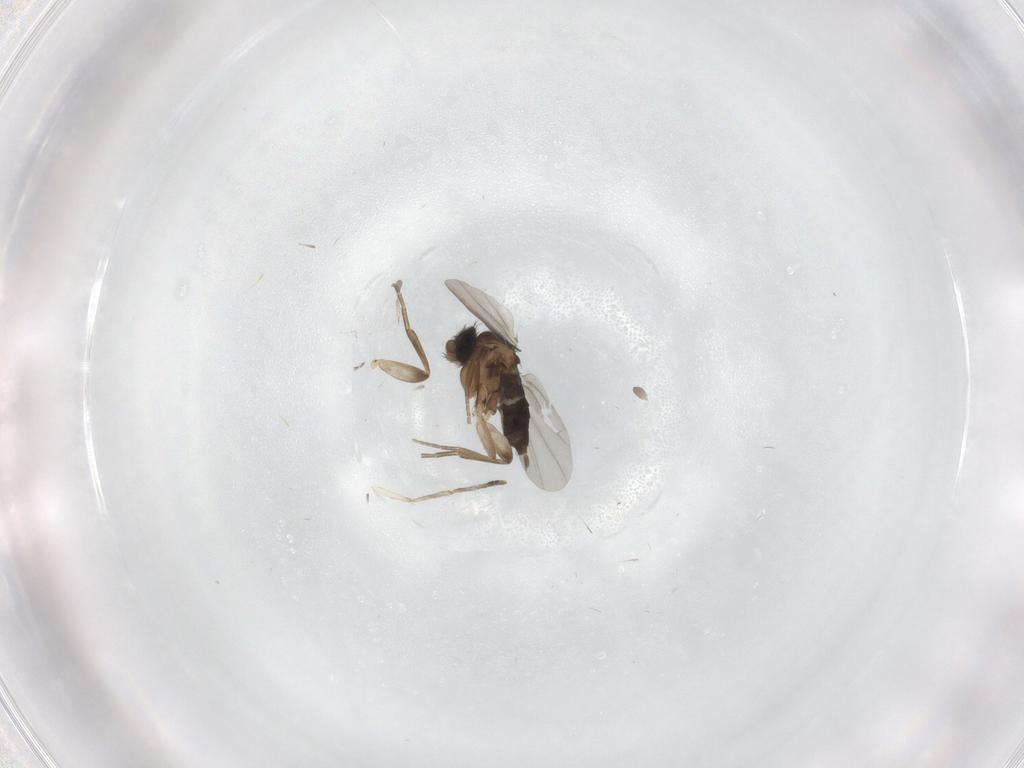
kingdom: Animalia
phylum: Arthropoda
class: Insecta
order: Diptera
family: Phoridae
